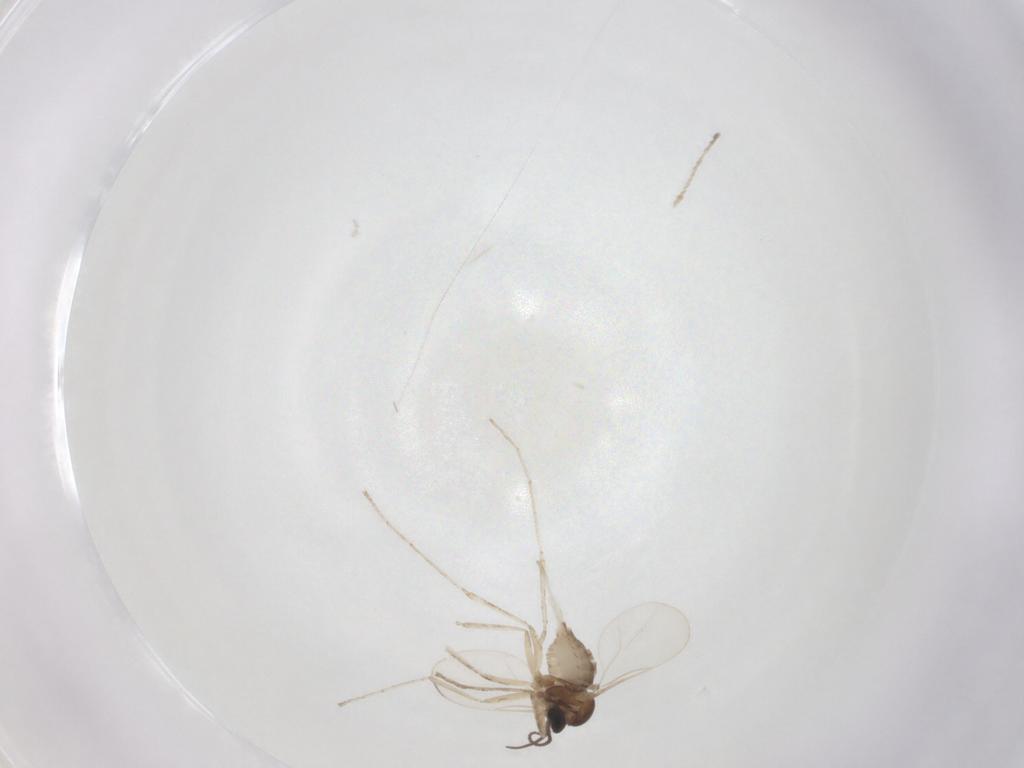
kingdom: Animalia
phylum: Arthropoda
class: Insecta
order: Diptera
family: Cecidomyiidae
